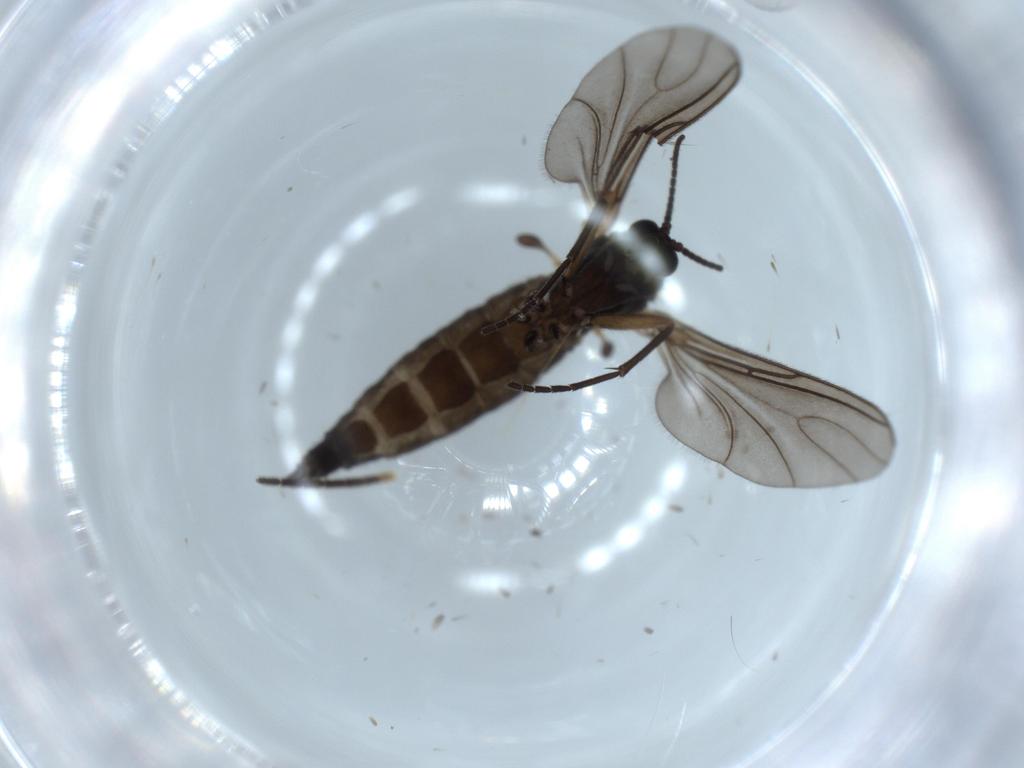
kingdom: Animalia
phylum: Arthropoda
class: Insecta
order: Diptera
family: Sciaridae
